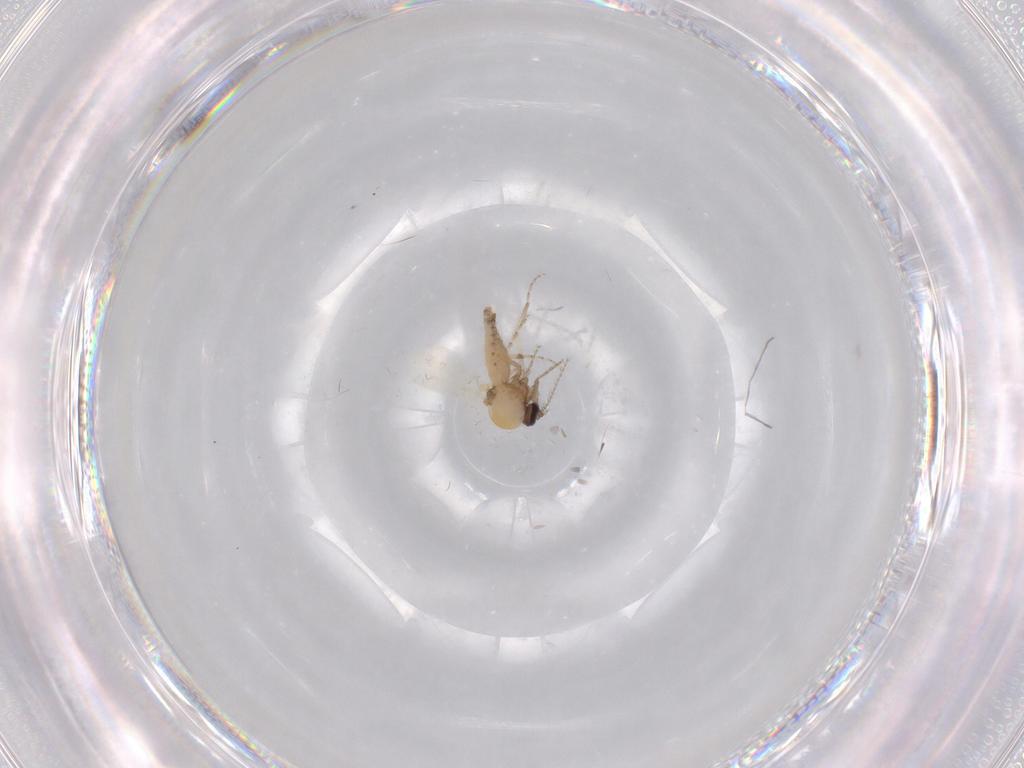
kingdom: Animalia
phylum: Arthropoda
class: Insecta
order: Diptera
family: Ceratopogonidae
